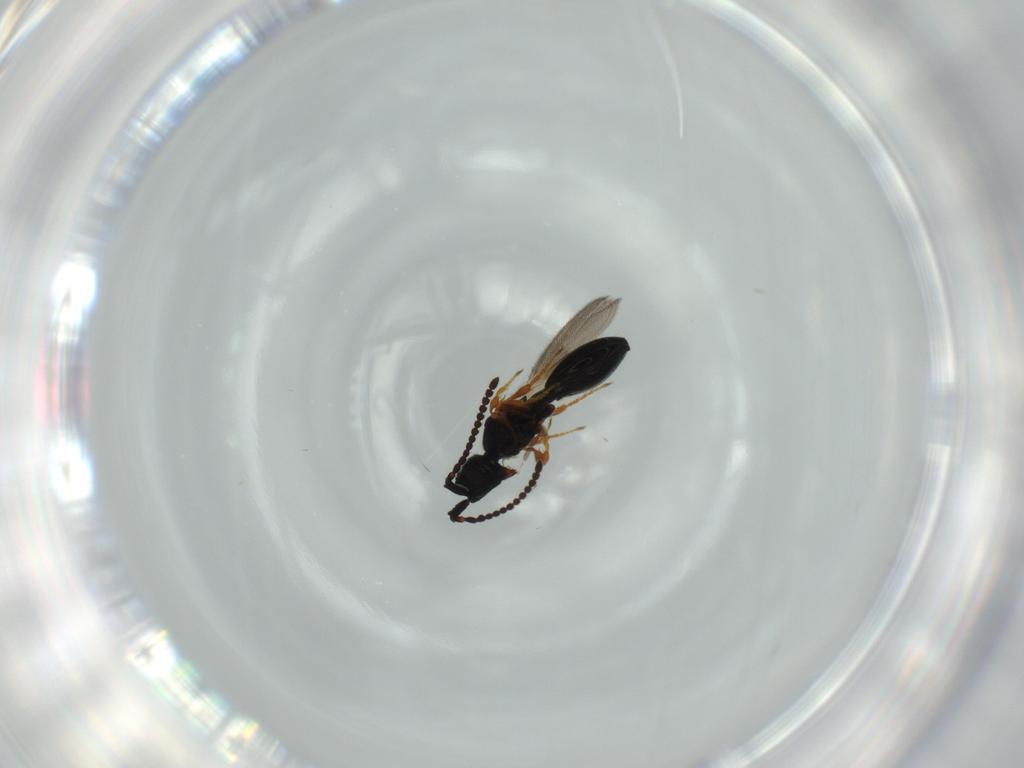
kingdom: Animalia
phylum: Arthropoda
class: Insecta
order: Hymenoptera
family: Diapriidae
